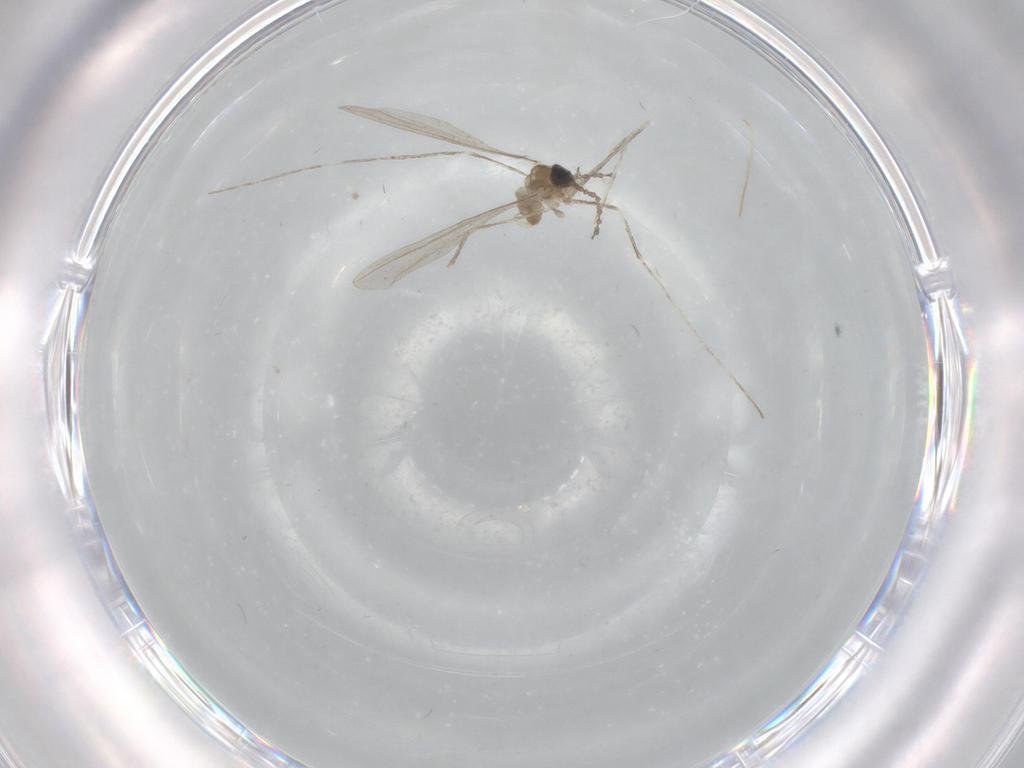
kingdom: Animalia
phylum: Arthropoda
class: Insecta
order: Diptera
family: Cecidomyiidae
